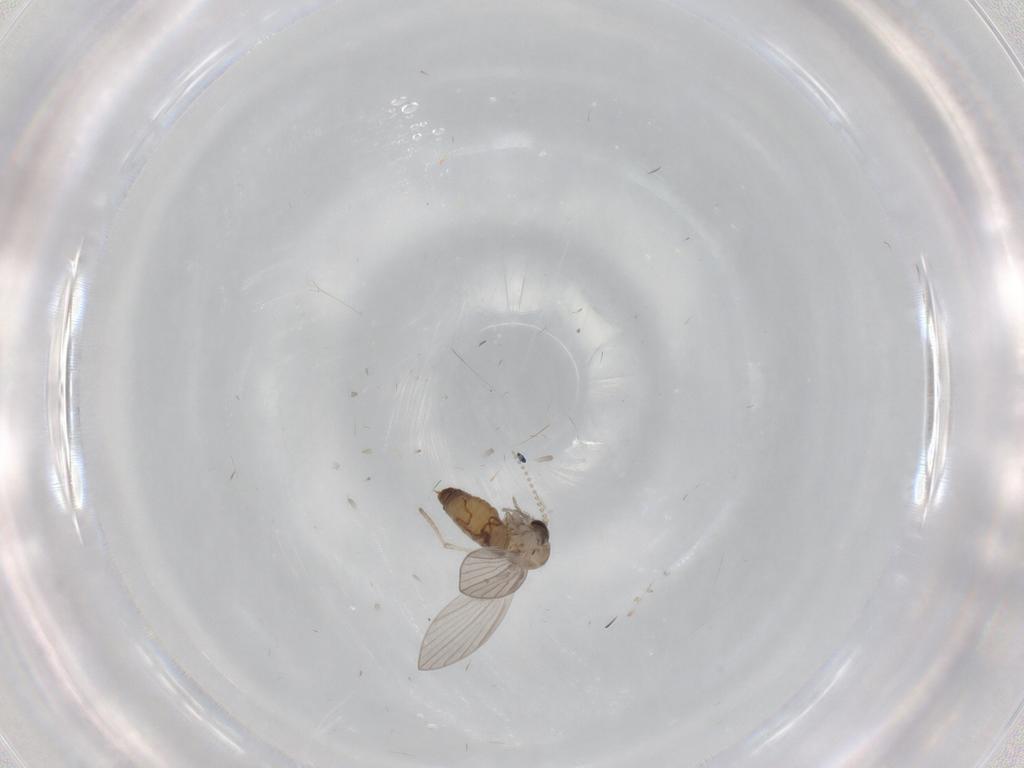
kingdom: Animalia
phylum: Arthropoda
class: Insecta
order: Diptera
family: Psychodidae
